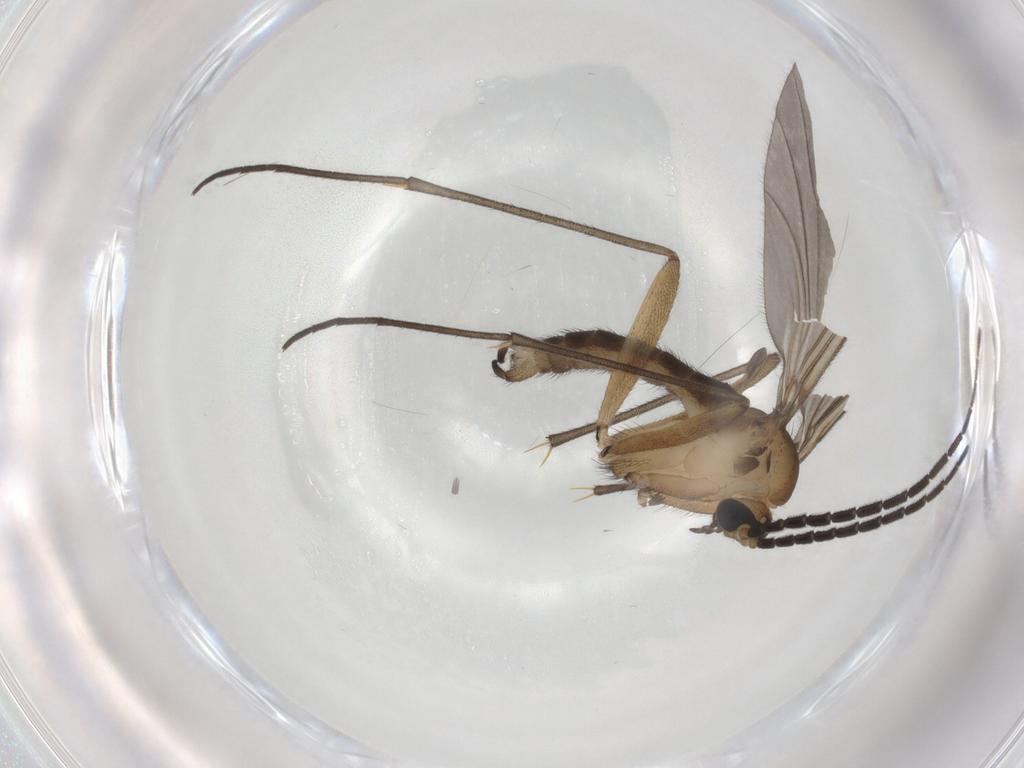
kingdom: Animalia
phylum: Arthropoda
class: Insecta
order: Diptera
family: Sciaridae
